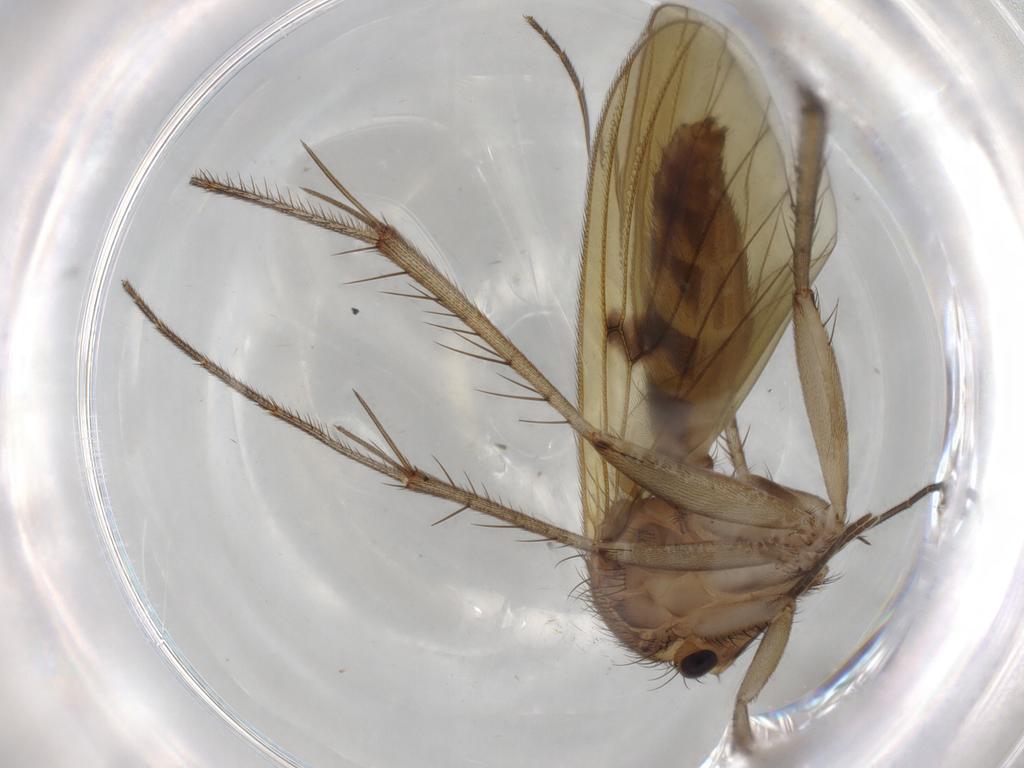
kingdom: Animalia
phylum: Arthropoda
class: Insecta
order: Diptera
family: Mycetophilidae
